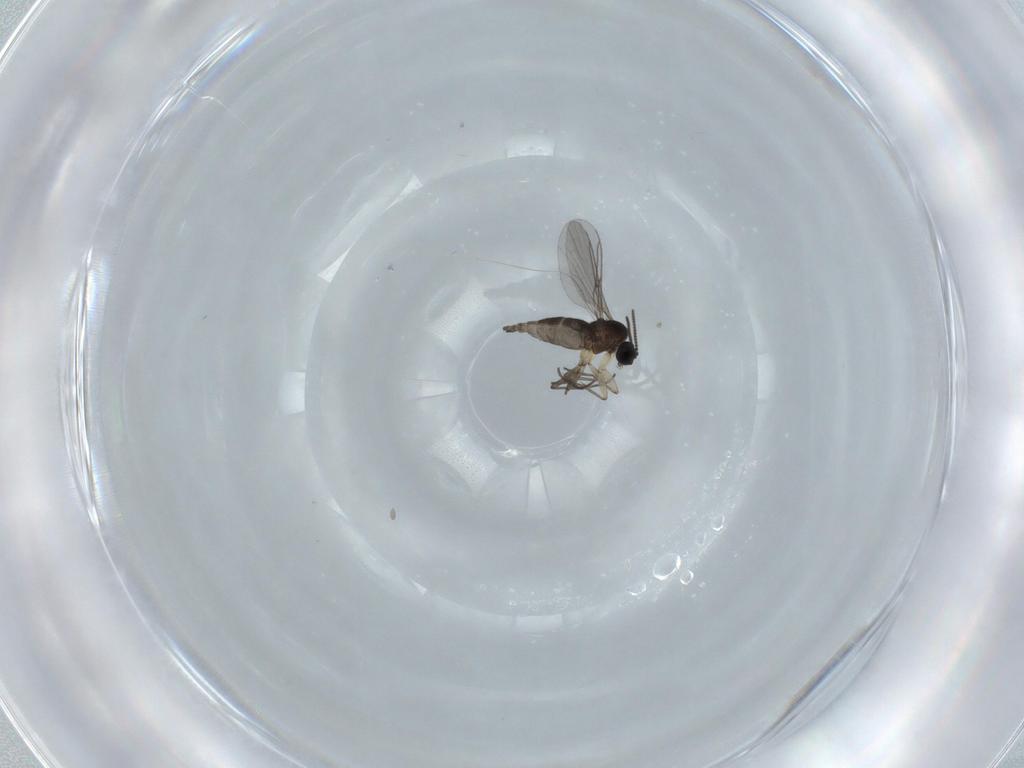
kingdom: Animalia
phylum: Arthropoda
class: Insecta
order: Diptera
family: Sciaridae
